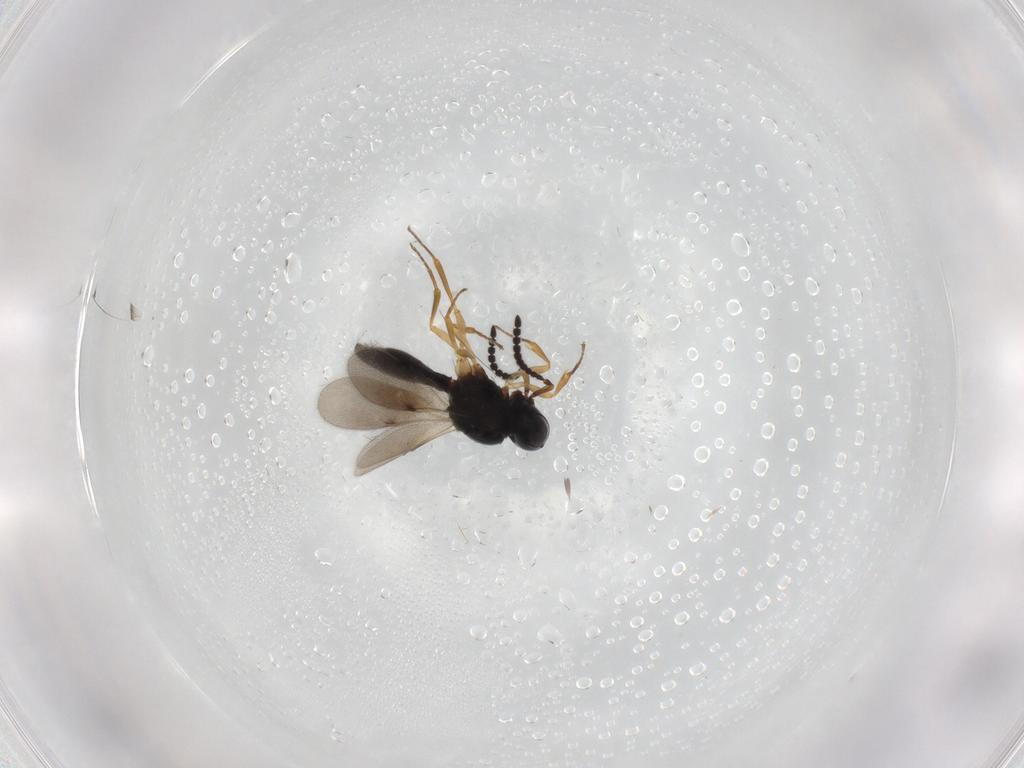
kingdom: Animalia
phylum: Arthropoda
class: Insecta
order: Hymenoptera
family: Scelionidae
